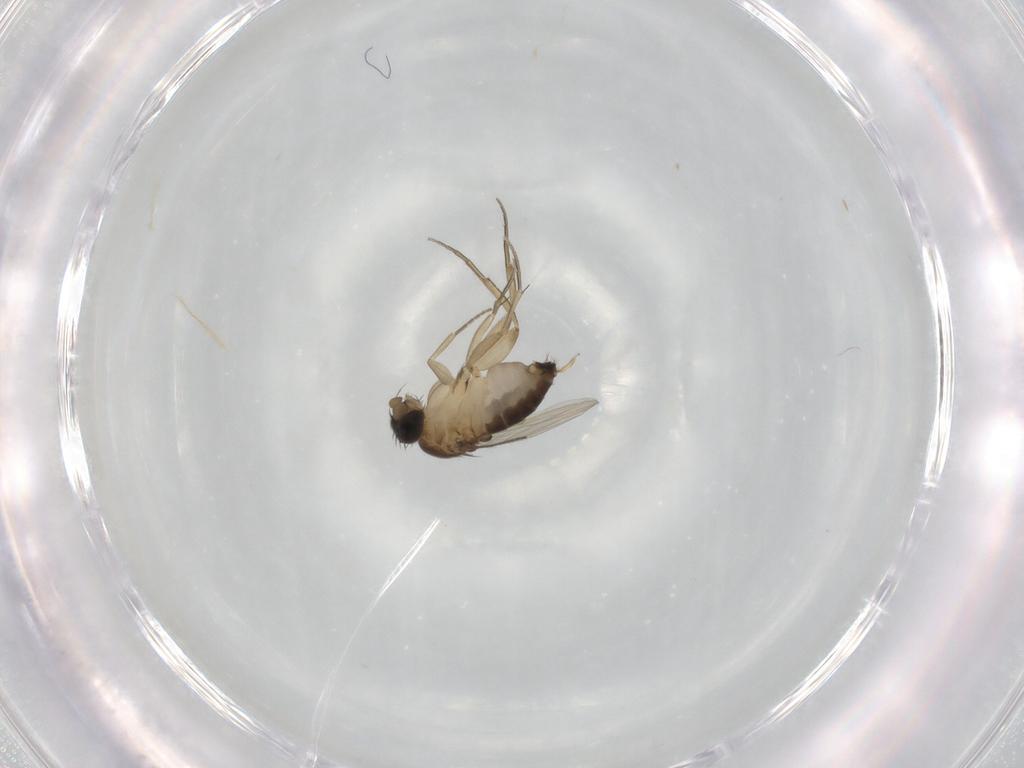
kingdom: Animalia
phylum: Arthropoda
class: Insecta
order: Diptera
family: Phoridae
